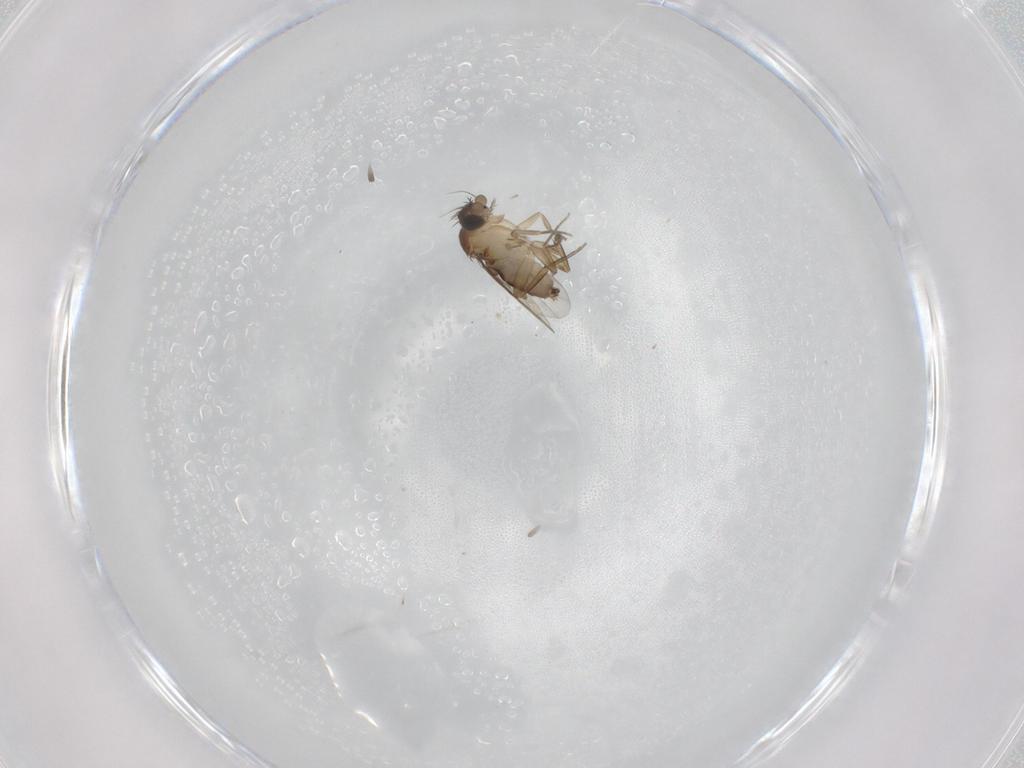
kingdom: Animalia
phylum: Arthropoda
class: Insecta
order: Diptera
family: Phoridae
